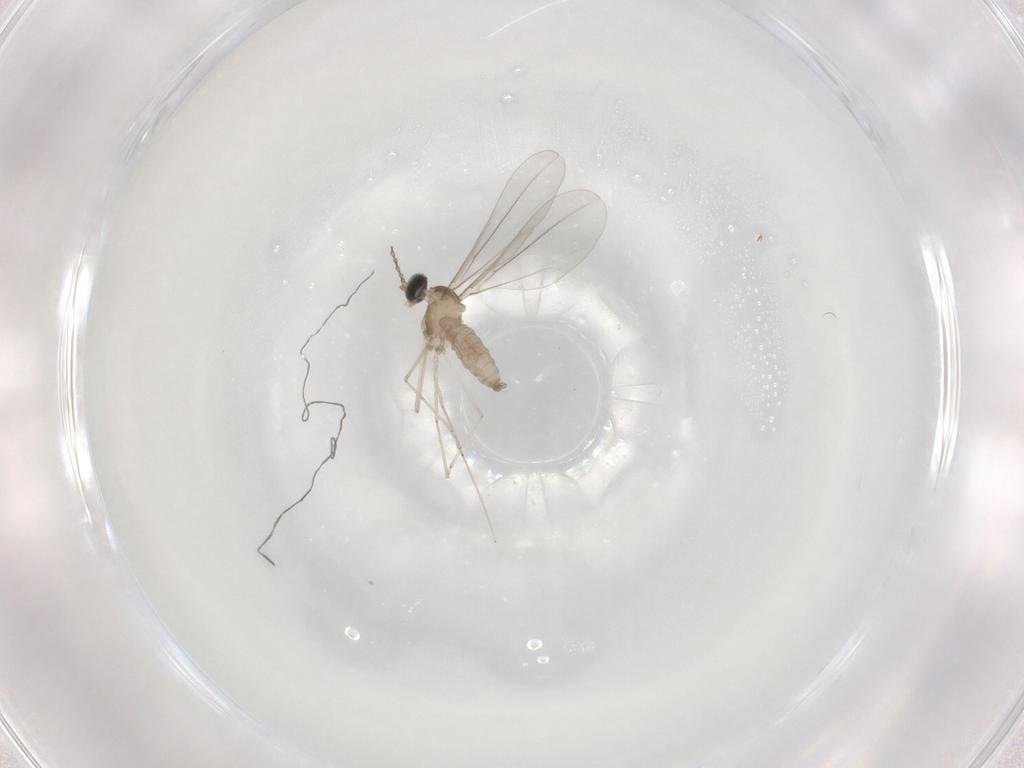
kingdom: Animalia
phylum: Arthropoda
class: Insecta
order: Diptera
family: Cecidomyiidae
